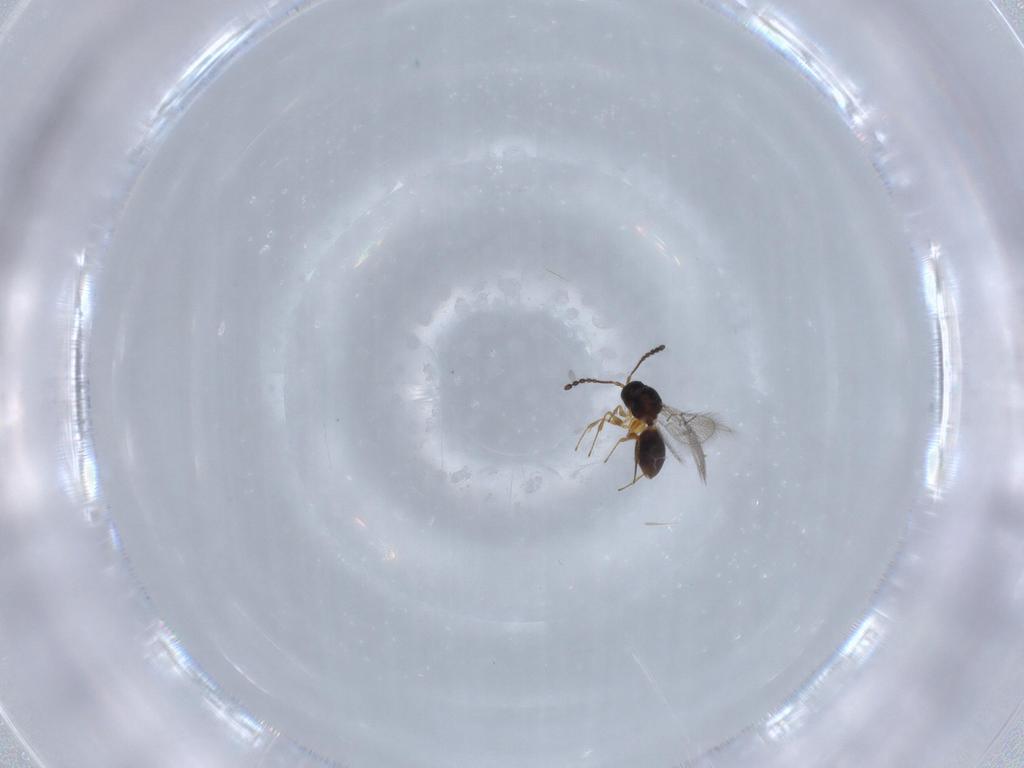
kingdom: Animalia
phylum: Arthropoda
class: Insecta
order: Hymenoptera
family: Figitidae
